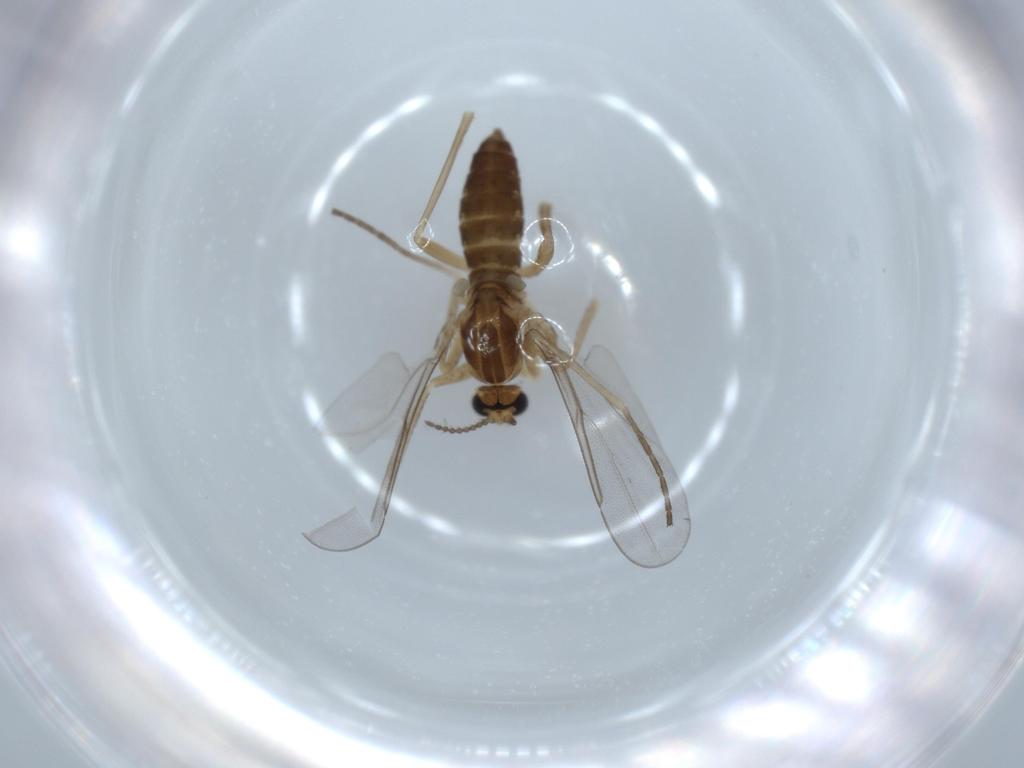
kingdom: Animalia
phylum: Arthropoda
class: Insecta
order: Diptera
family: Cecidomyiidae
